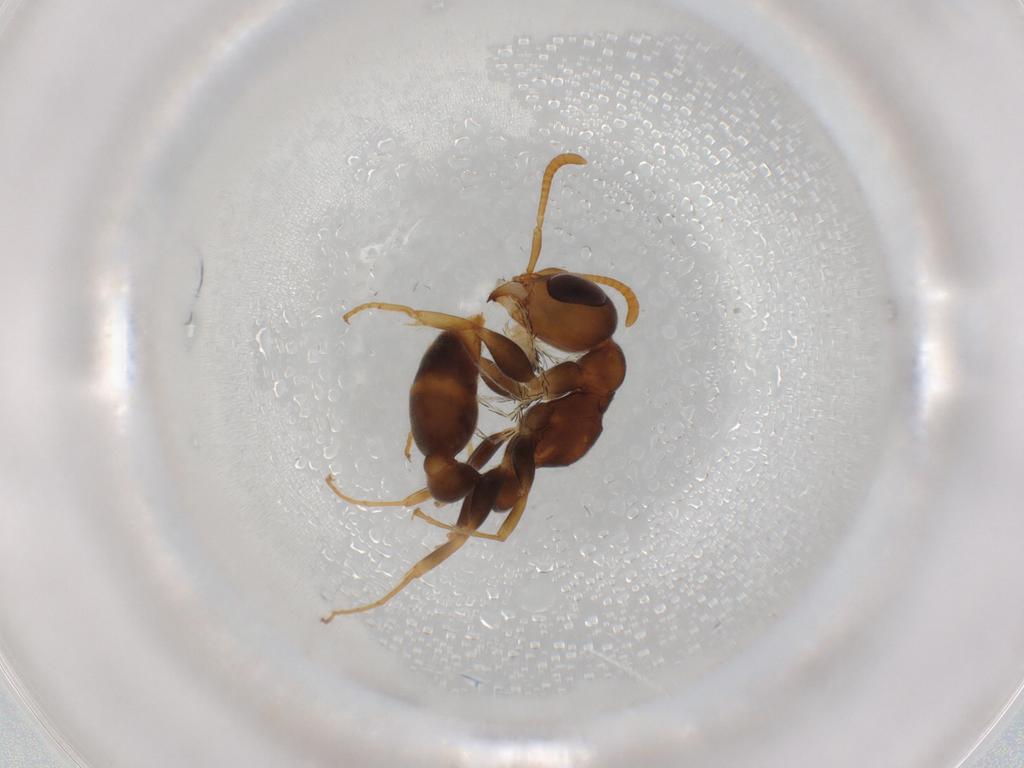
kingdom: Animalia
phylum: Arthropoda
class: Insecta
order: Hymenoptera
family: Formicidae
